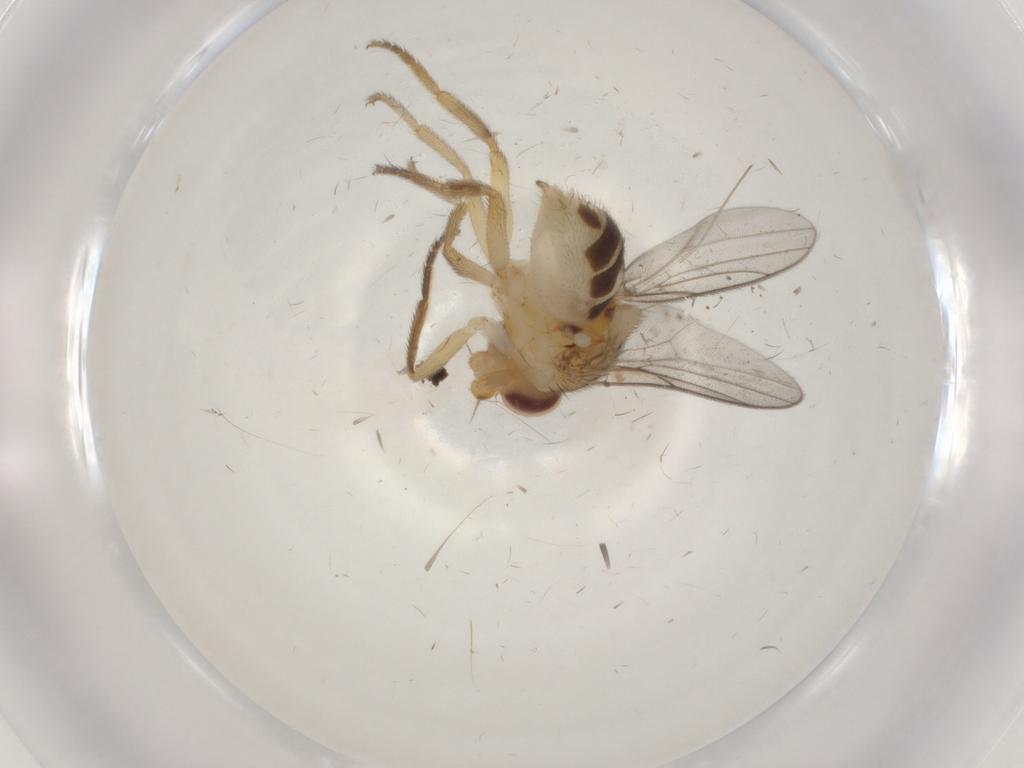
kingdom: Animalia
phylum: Arthropoda
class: Insecta
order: Diptera
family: Chloropidae
